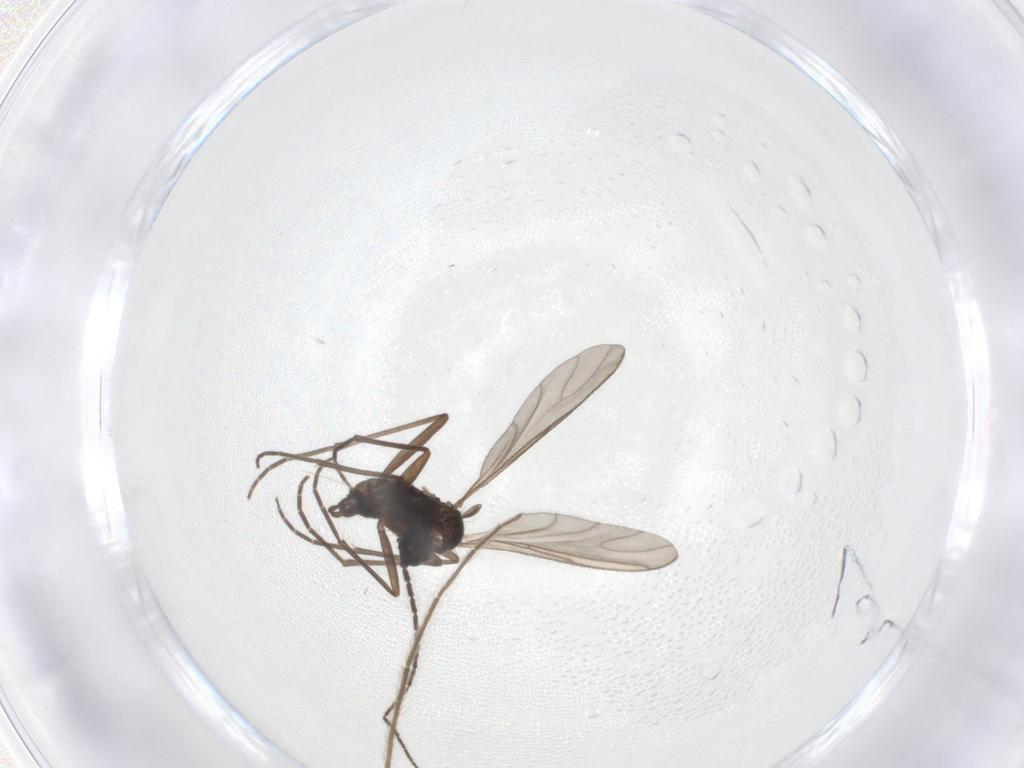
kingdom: Animalia
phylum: Arthropoda
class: Insecta
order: Diptera
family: Sciaridae
